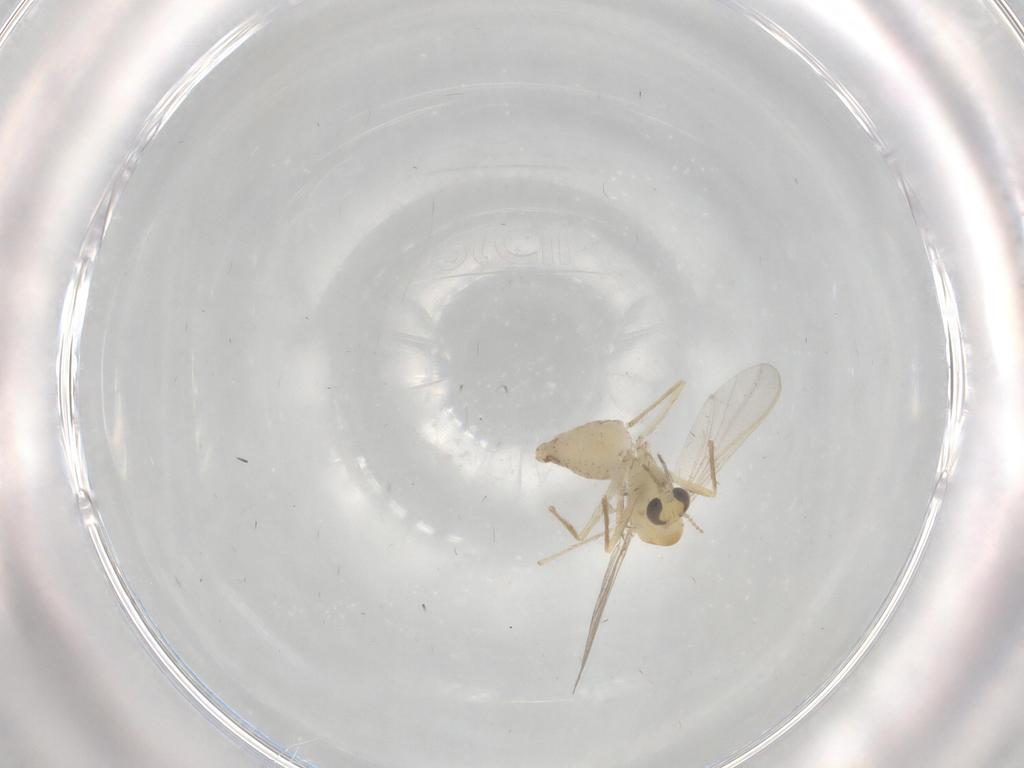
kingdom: Animalia
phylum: Arthropoda
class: Insecta
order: Diptera
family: Chironomidae
